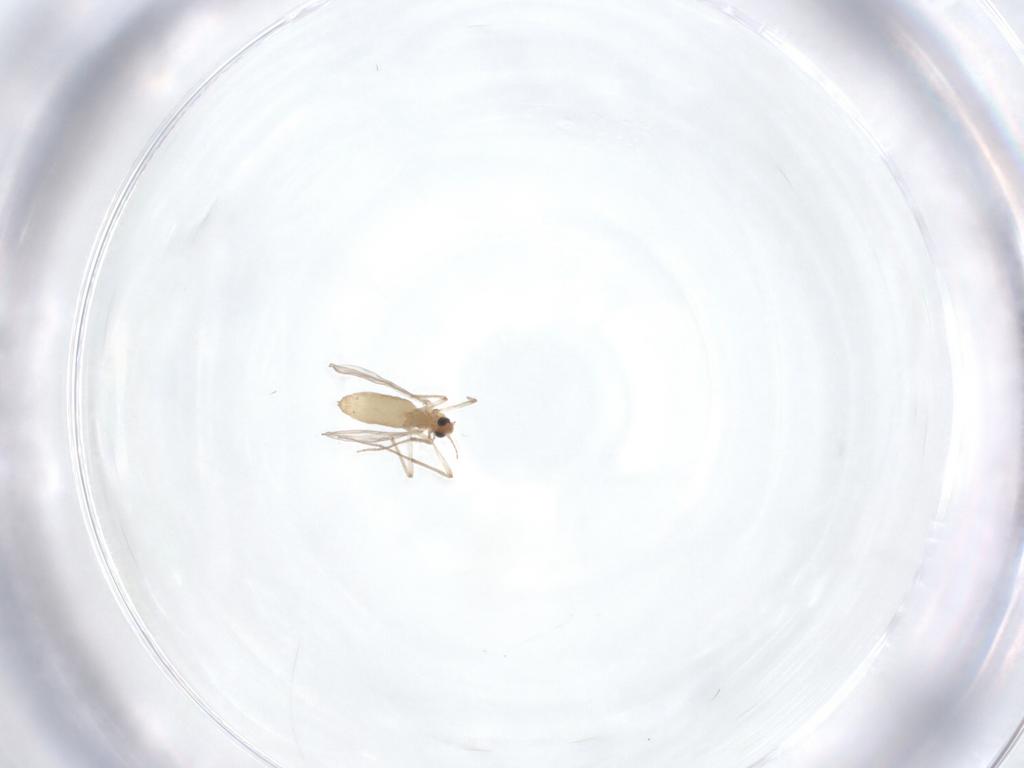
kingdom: Animalia
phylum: Arthropoda
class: Insecta
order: Diptera
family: Chironomidae
